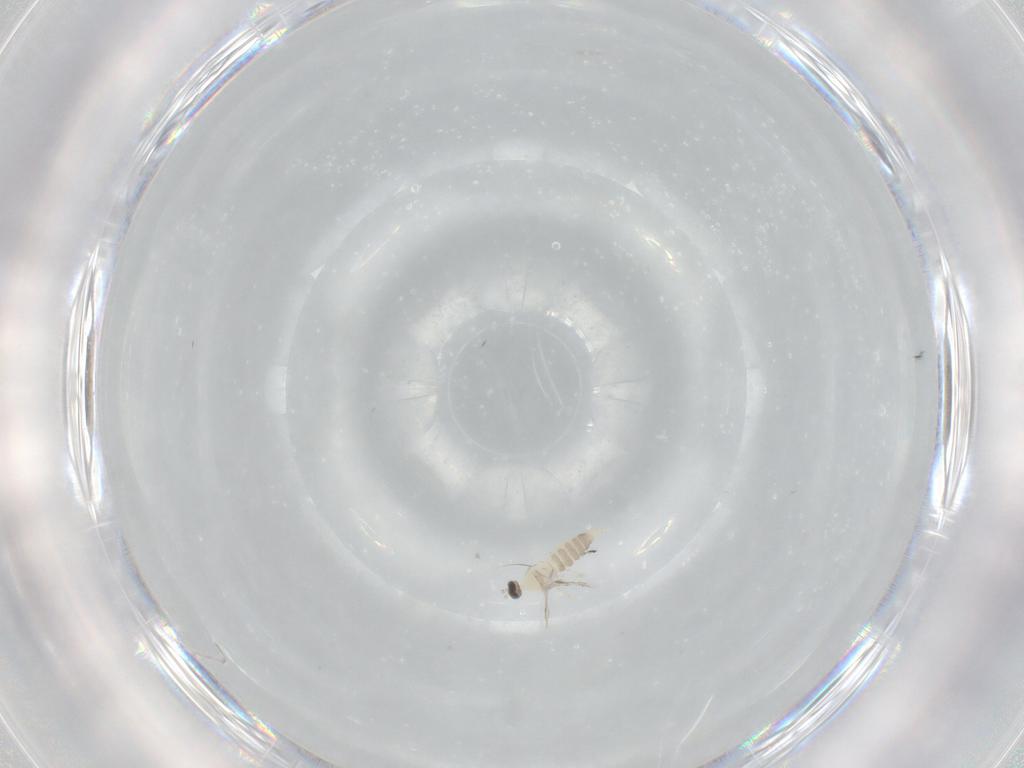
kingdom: Animalia
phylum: Arthropoda
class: Insecta
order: Diptera
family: Cecidomyiidae
